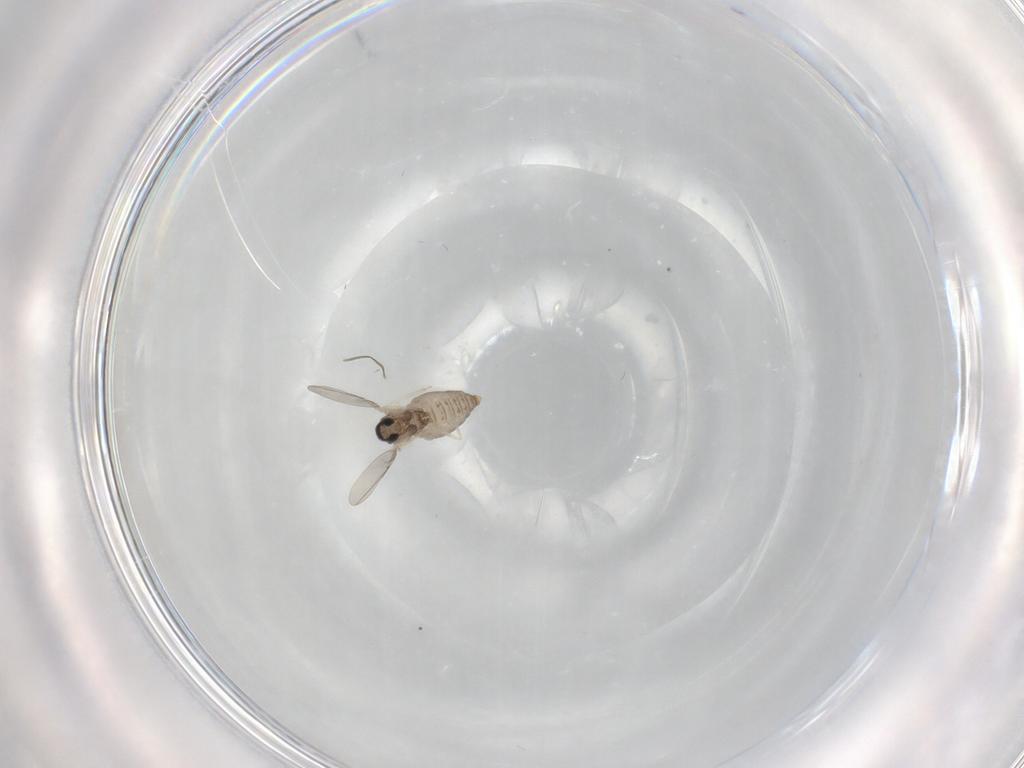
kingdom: Animalia
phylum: Arthropoda
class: Insecta
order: Diptera
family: Cecidomyiidae
